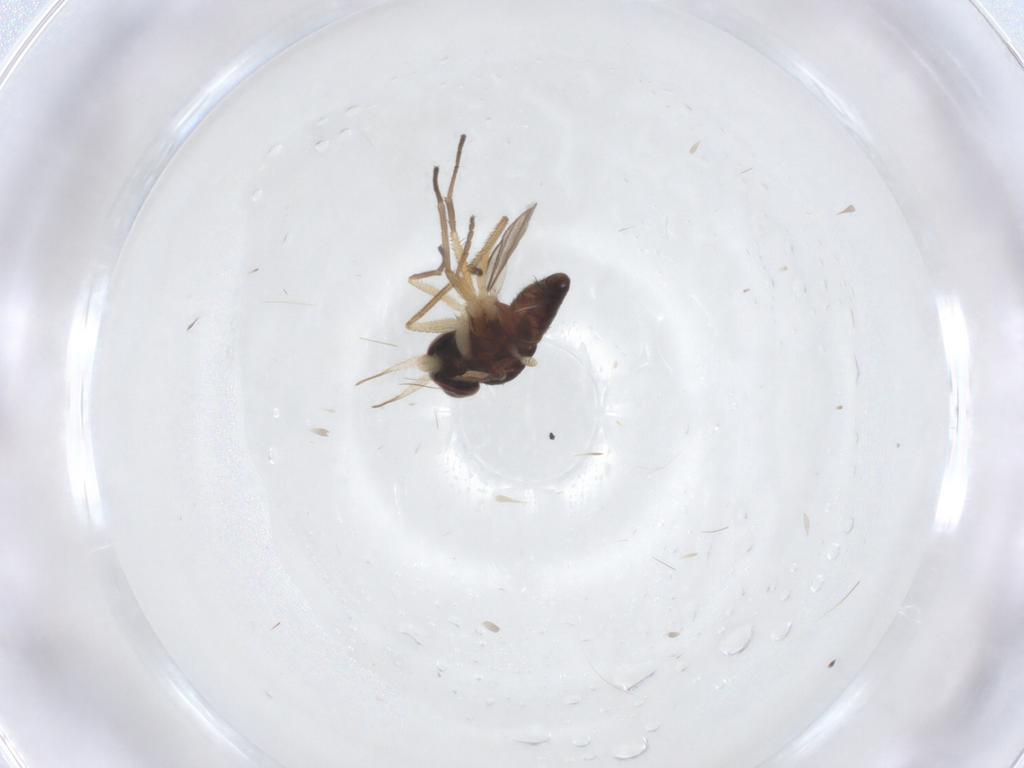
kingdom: Animalia
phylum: Arthropoda
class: Insecta
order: Diptera
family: Dolichopodidae
